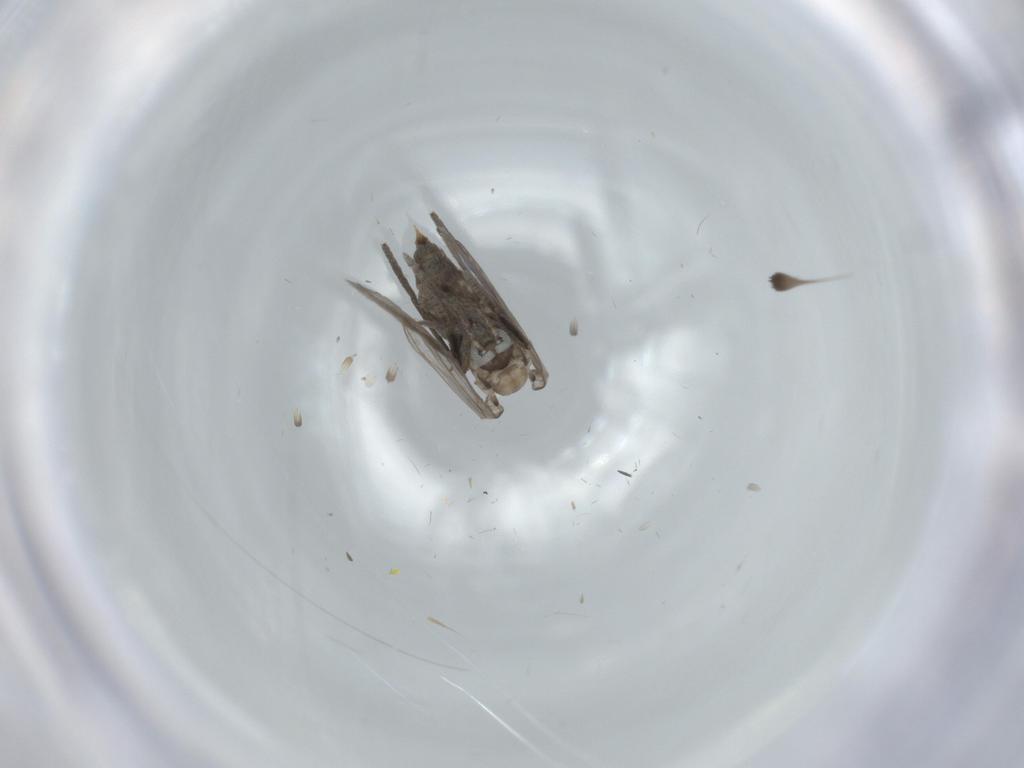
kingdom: Animalia
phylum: Arthropoda
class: Insecta
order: Diptera
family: Psychodidae
